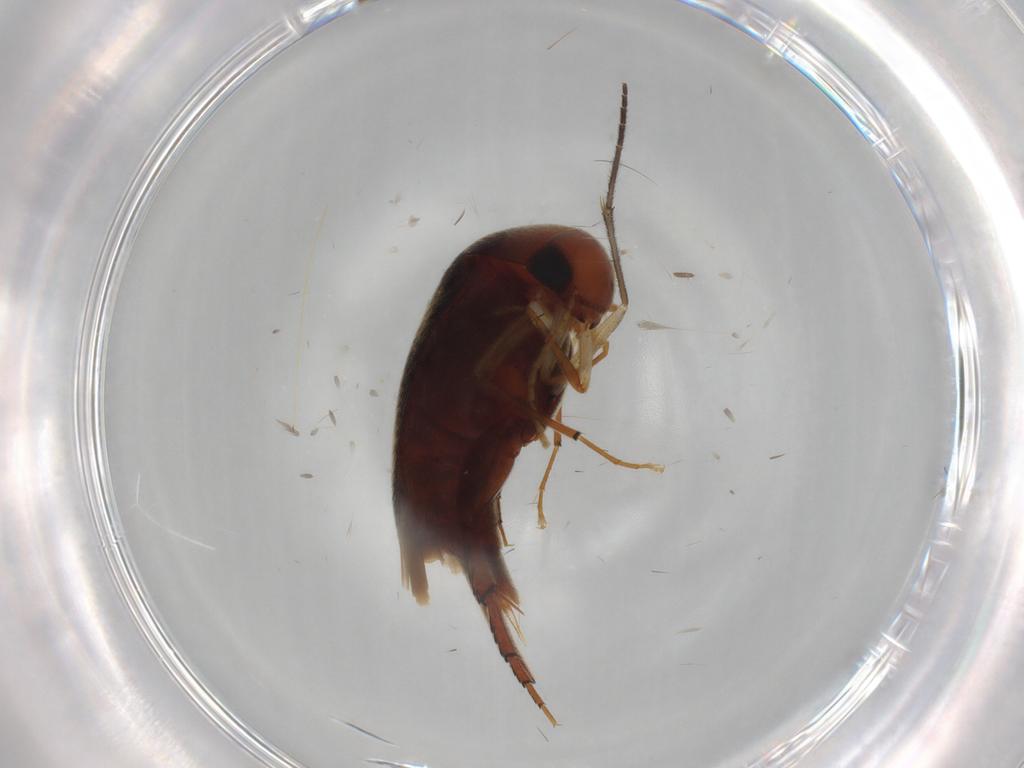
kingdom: Animalia
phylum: Arthropoda
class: Insecta
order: Coleoptera
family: Mordellidae
